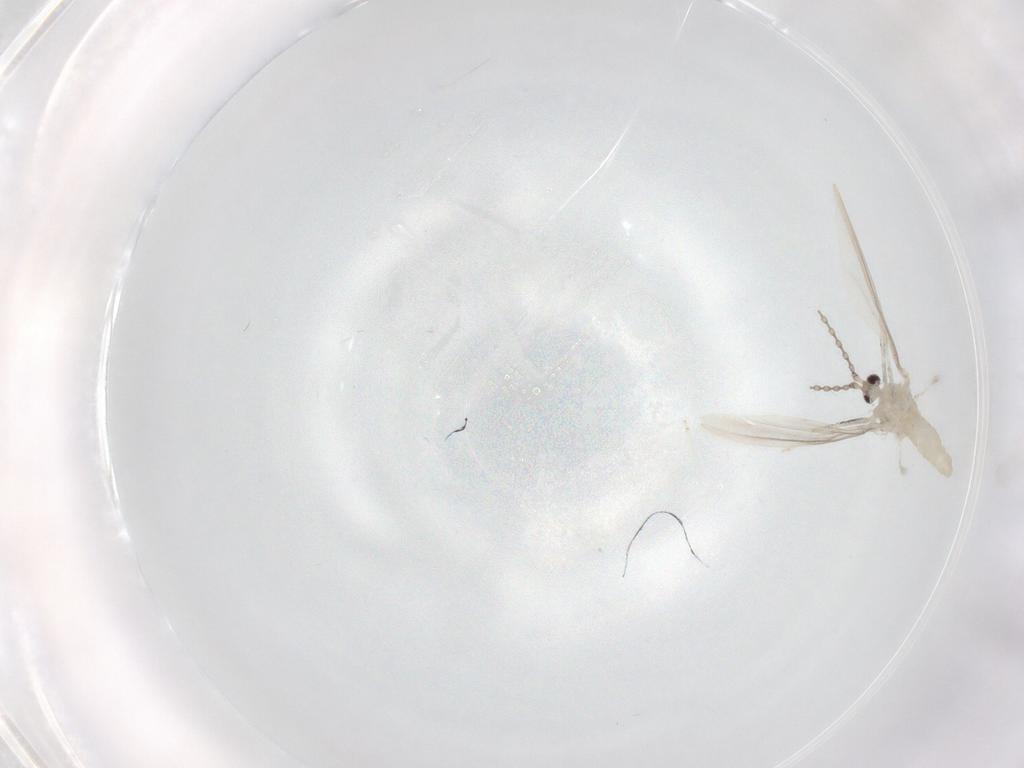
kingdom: Animalia
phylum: Arthropoda
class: Insecta
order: Diptera
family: Cecidomyiidae
